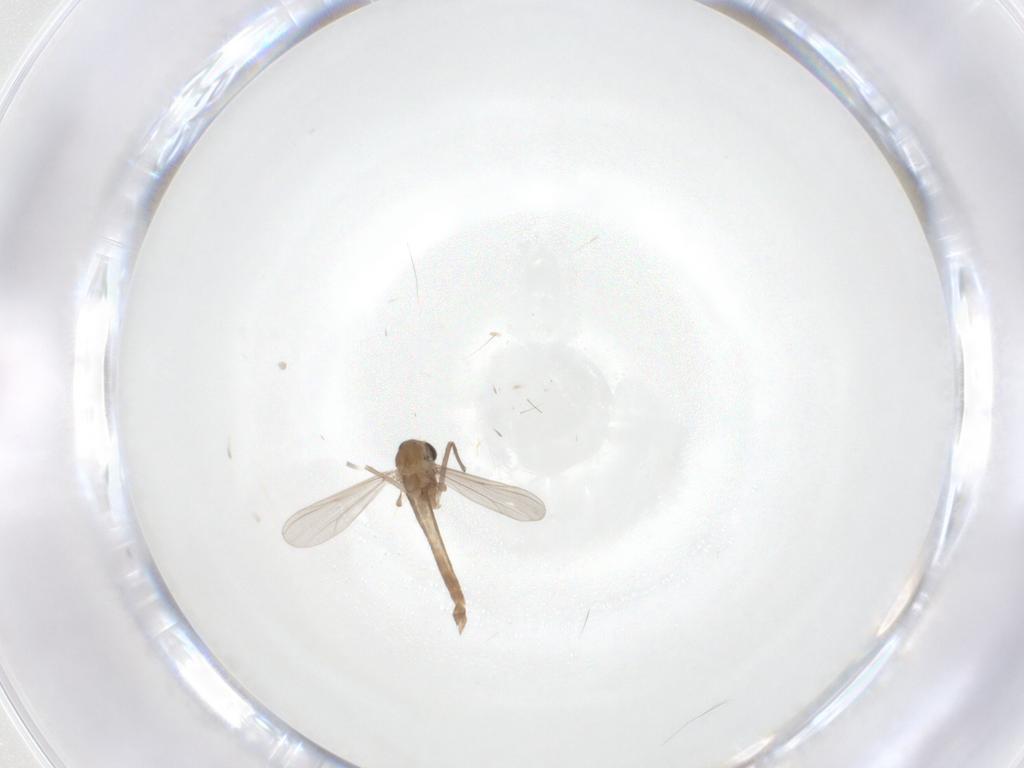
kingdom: Animalia
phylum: Arthropoda
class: Insecta
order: Diptera
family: Chironomidae
